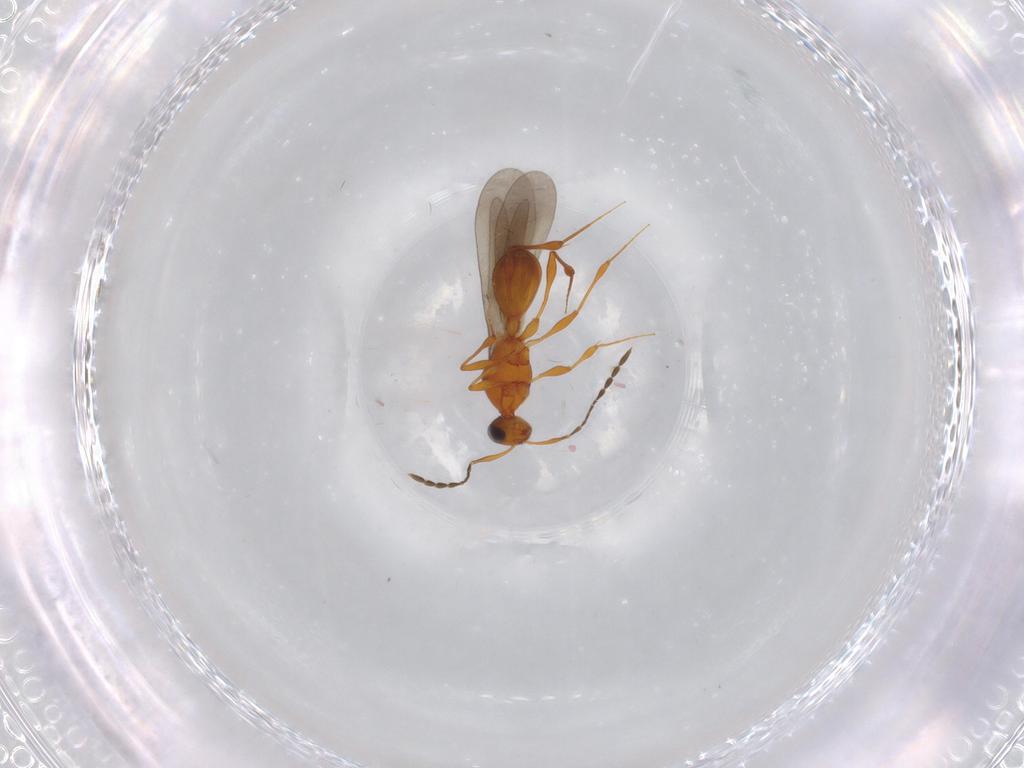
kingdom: Animalia
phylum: Arthropoda
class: Insecta
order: Hymenoptera
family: Platygastridae
